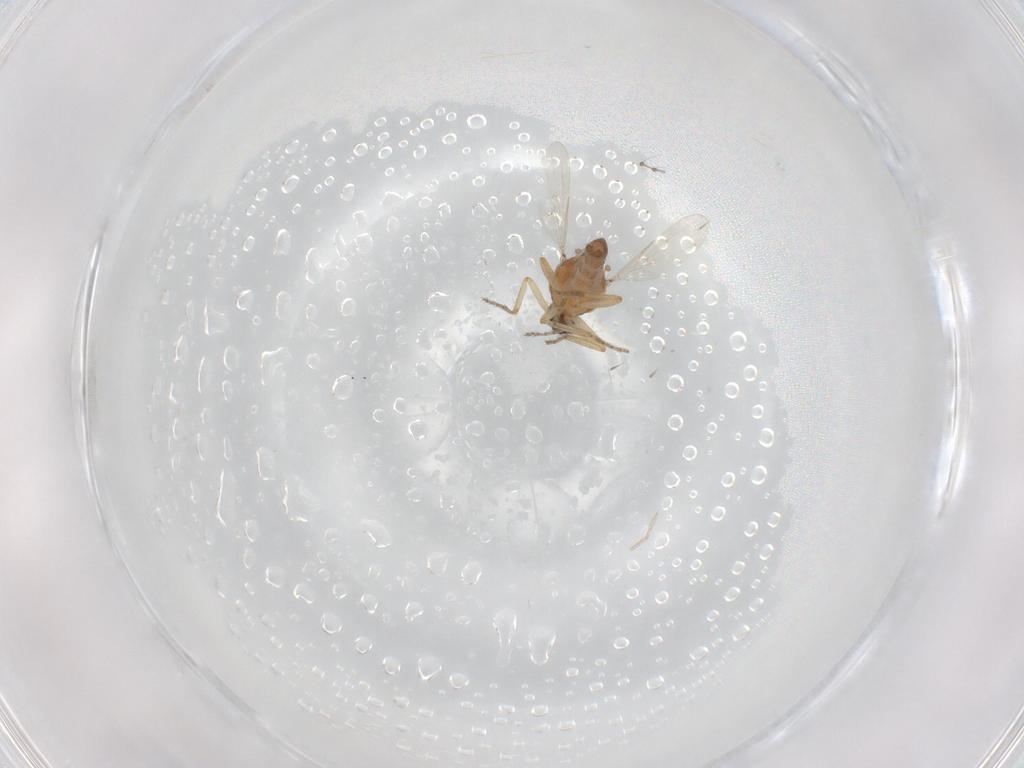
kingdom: Animalia
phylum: Arthropoda
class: Insecta
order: Diptera
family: Ceratopogonidae
